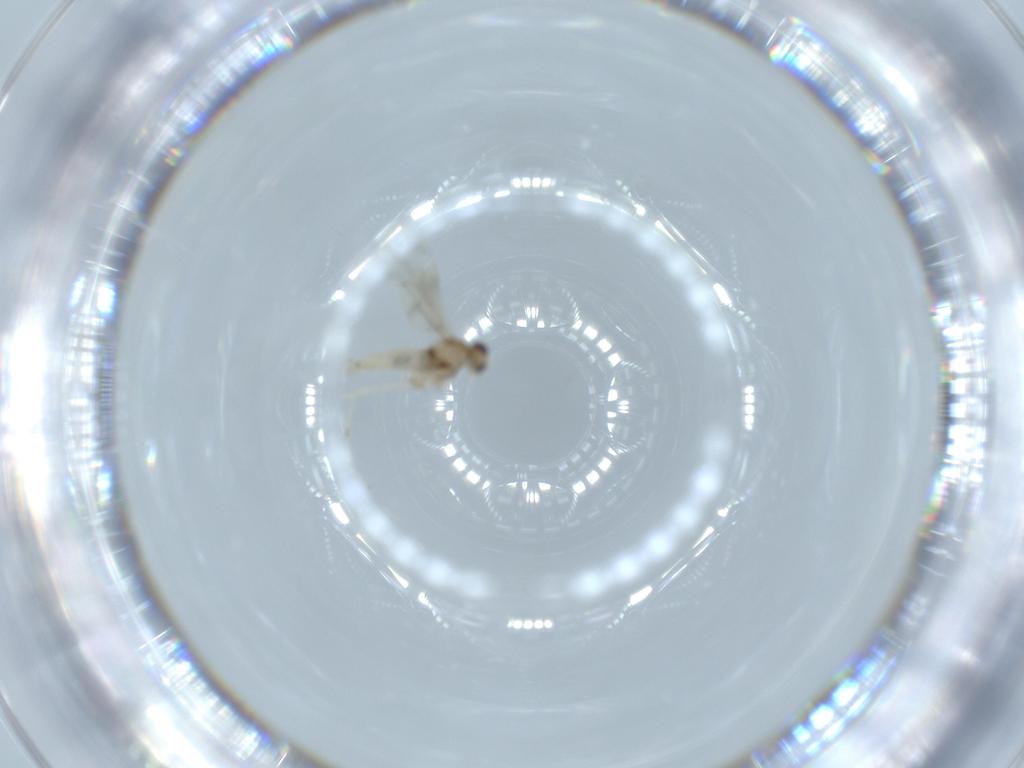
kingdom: Animalia
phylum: Arthropoda
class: Insecta
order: Diptera
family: Cecidomyiidae
